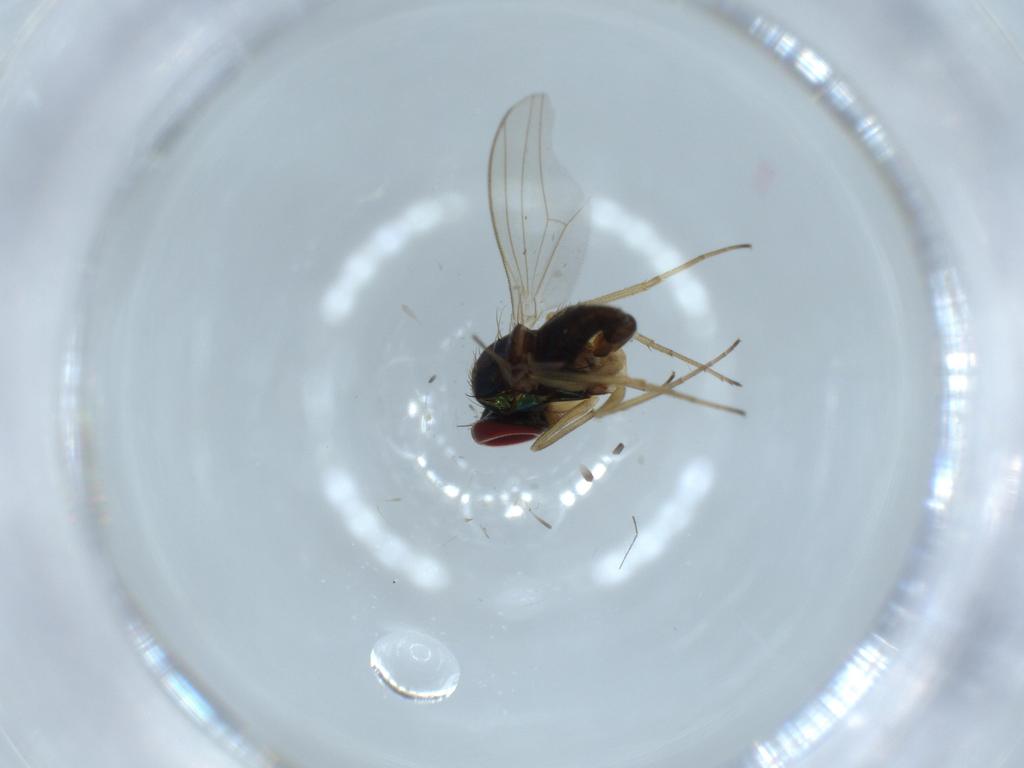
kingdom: Animalia
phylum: Arthropoda
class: Insecta
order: Diptera
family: Dolichopodidae
